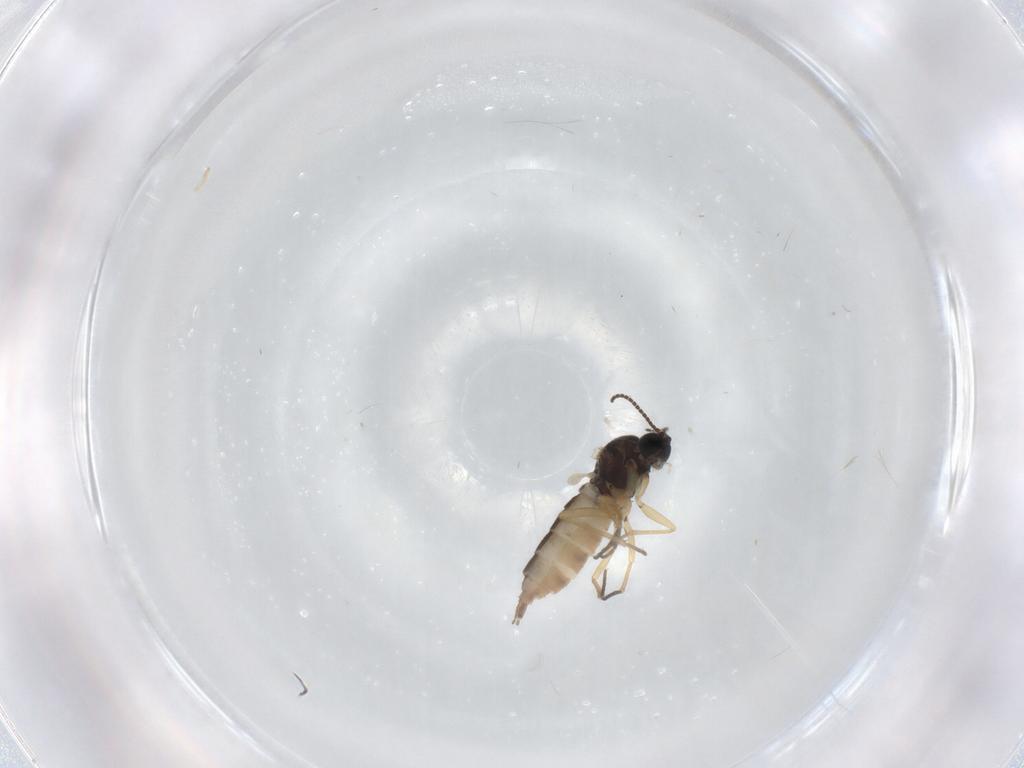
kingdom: Animalia
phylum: Arthropoda
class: Insecta
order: Diptera
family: Sciaridae
